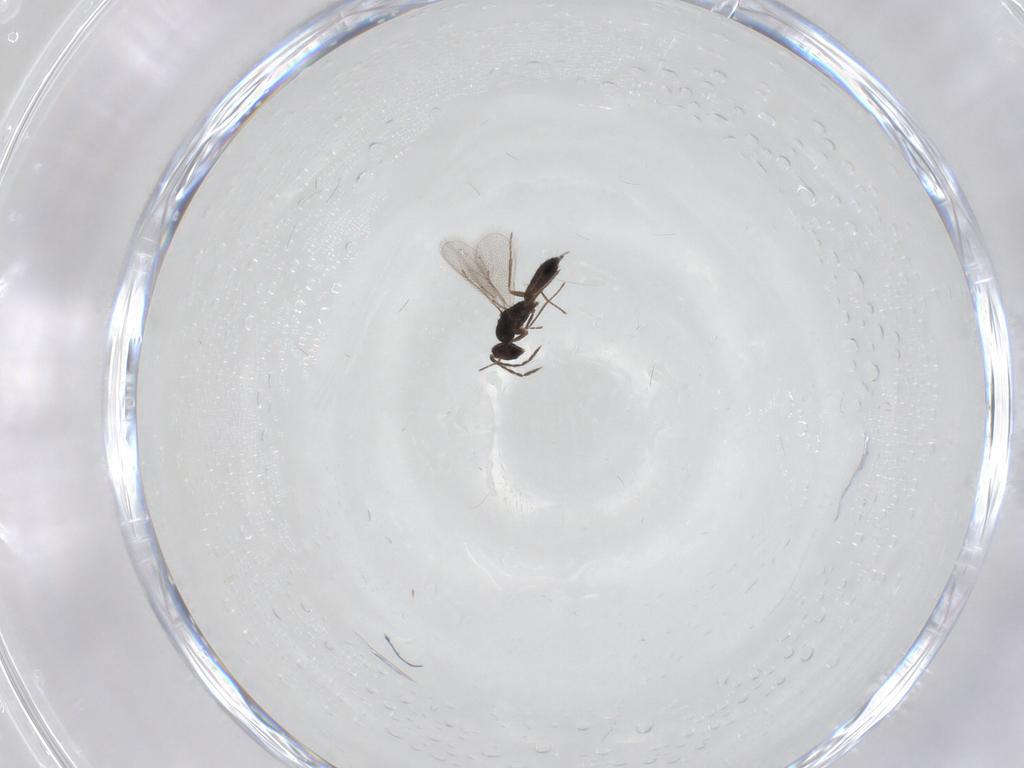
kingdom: Animalia
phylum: Arthropoda
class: Insecta
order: Hymenoptera
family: Eulophidae
